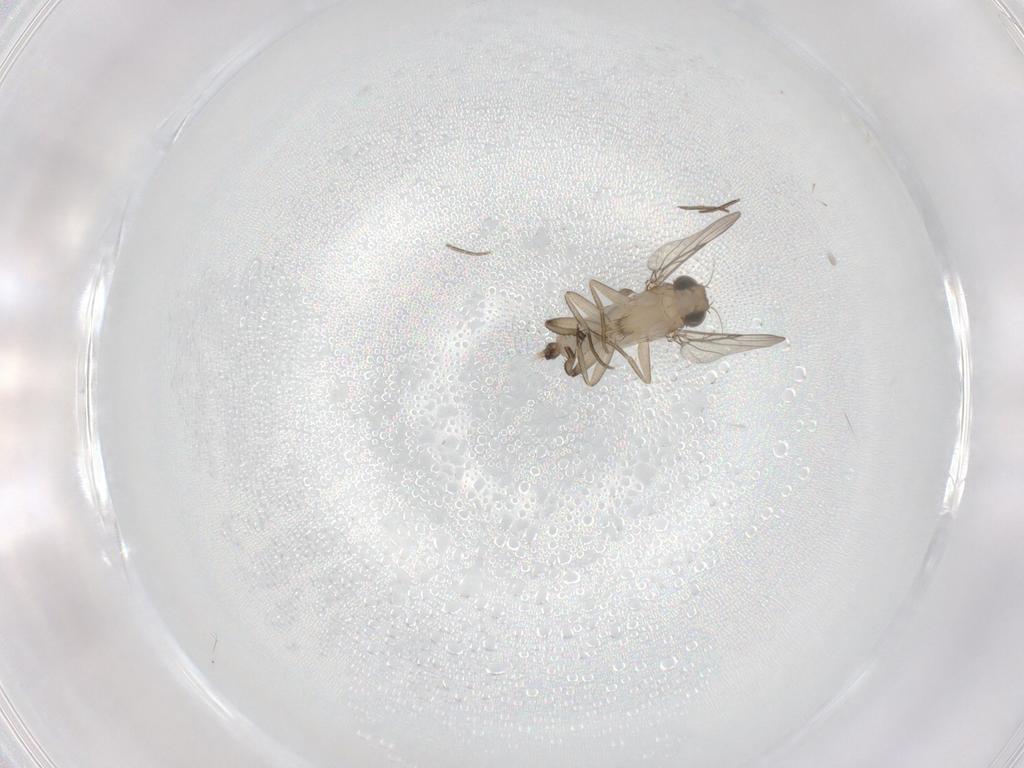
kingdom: Animalia
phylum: Arthropoda
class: Insecta
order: Diptera
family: Phoridae
